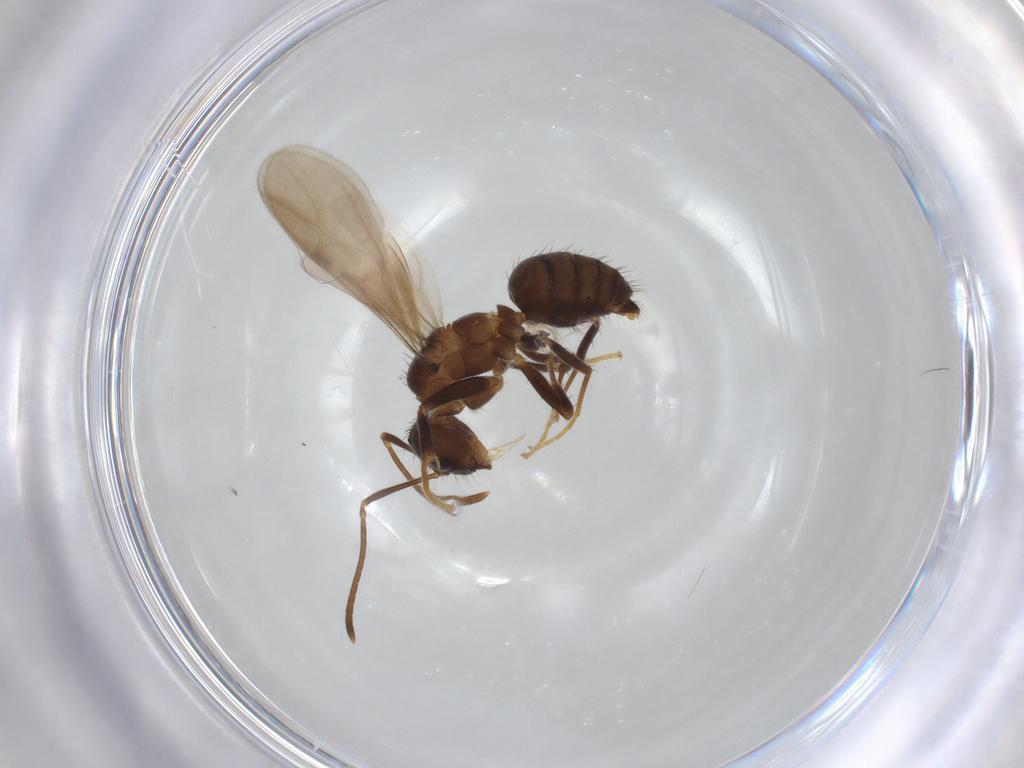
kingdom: Animalia
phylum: Arthropoda
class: Insecta
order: Hymenoptera
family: Formicidae
